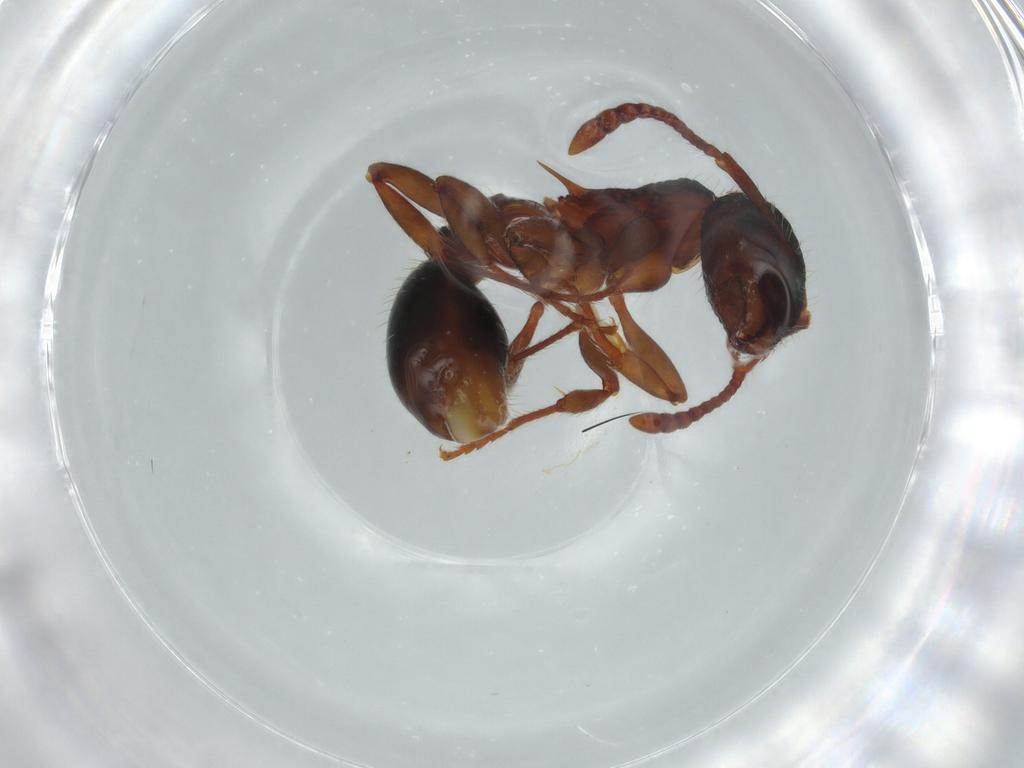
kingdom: Animalia
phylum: Arthropoda
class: Insecta
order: Hymenoptera
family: Formicidae
